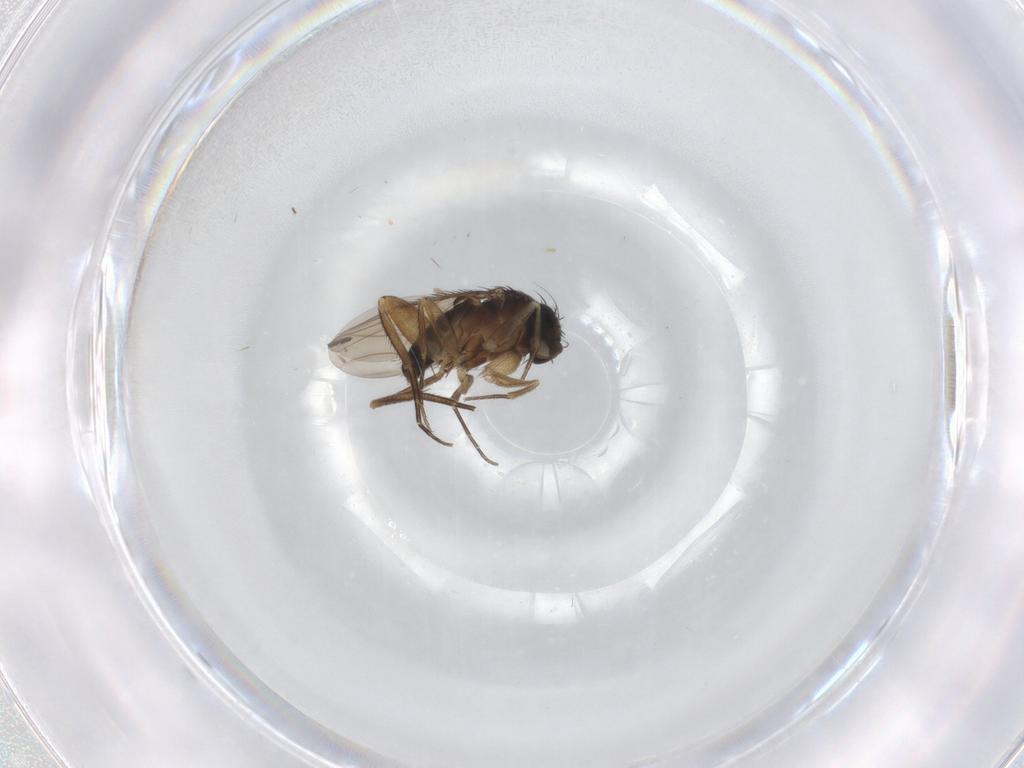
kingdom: Animalia
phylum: Arthropoda
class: Insecta
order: Diptera
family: Phoridae
